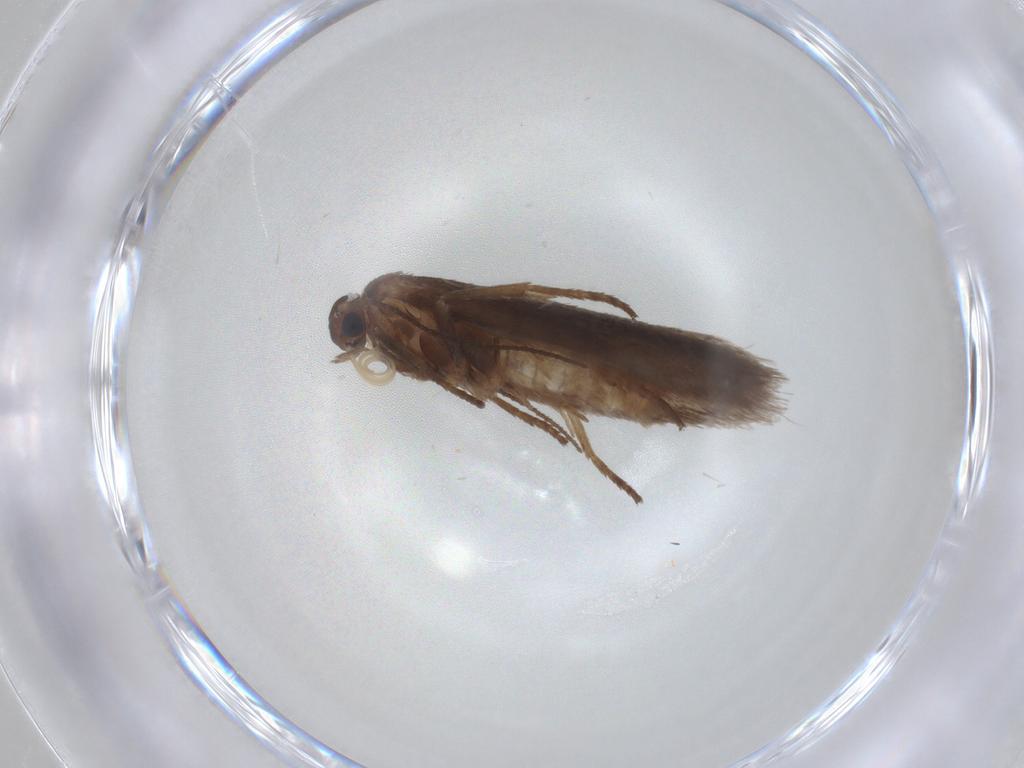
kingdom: Animalia
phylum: Arthropoda
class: Insecta
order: Lepidoptera
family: Limacodidae
